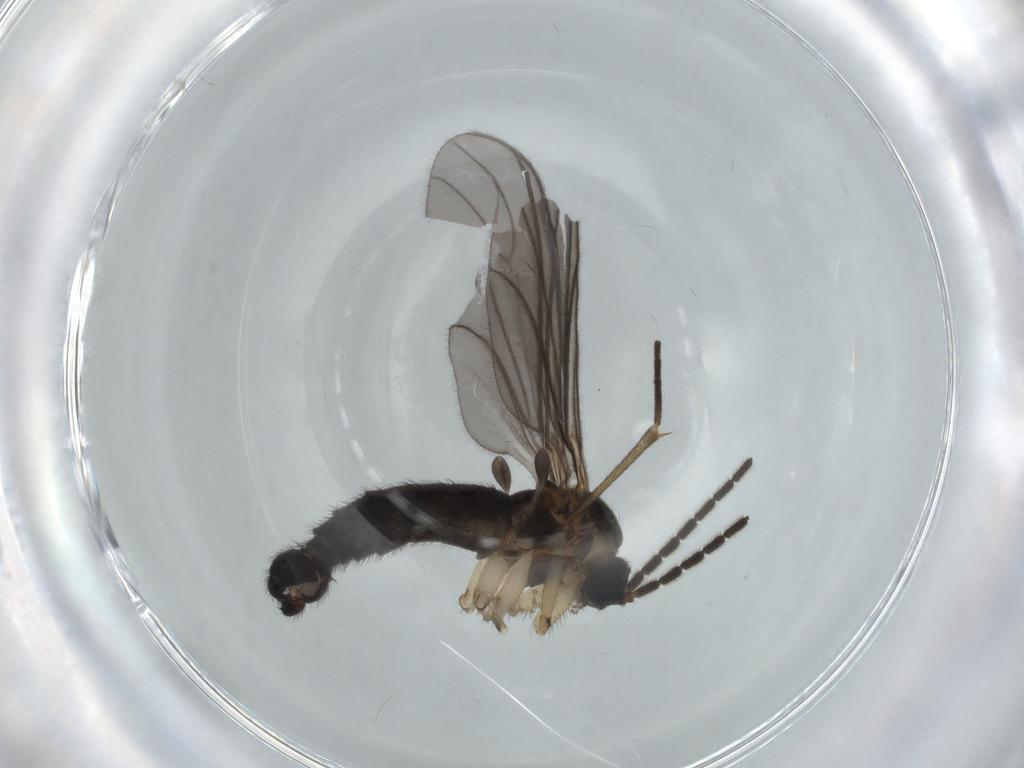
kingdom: Animalia
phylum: Arthropoda
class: Insecta
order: Diptera
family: Sciaridae
